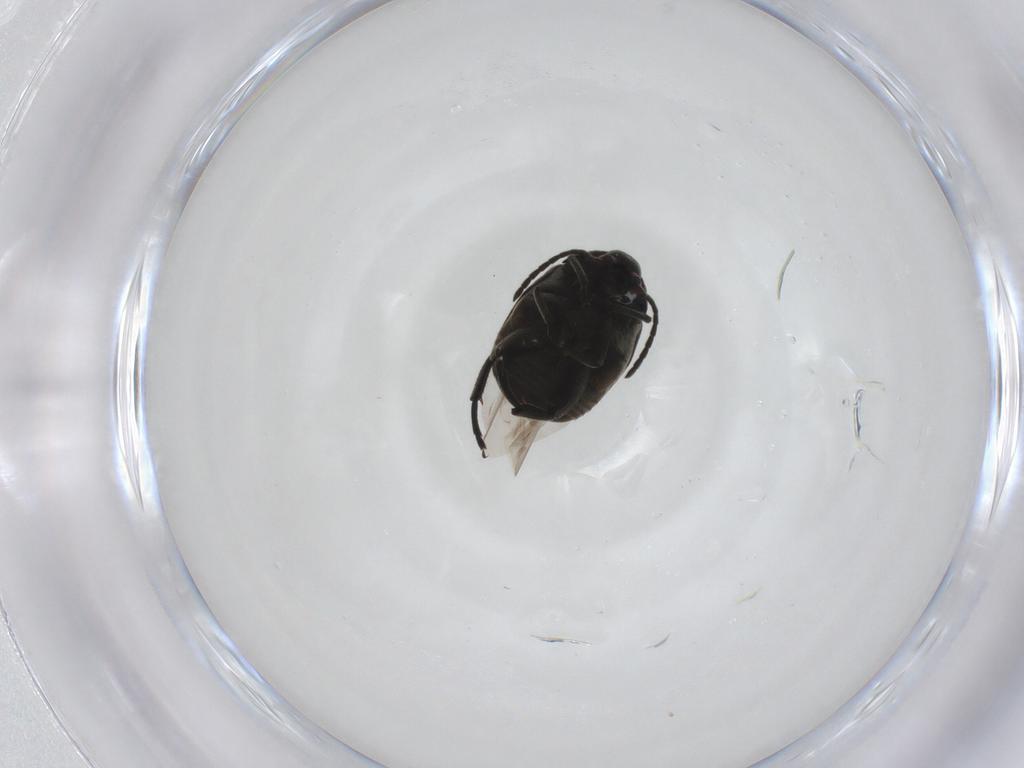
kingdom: Animalia
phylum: Arthropoda
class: Insecta
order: Coleoptera
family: Chrysomelidae
